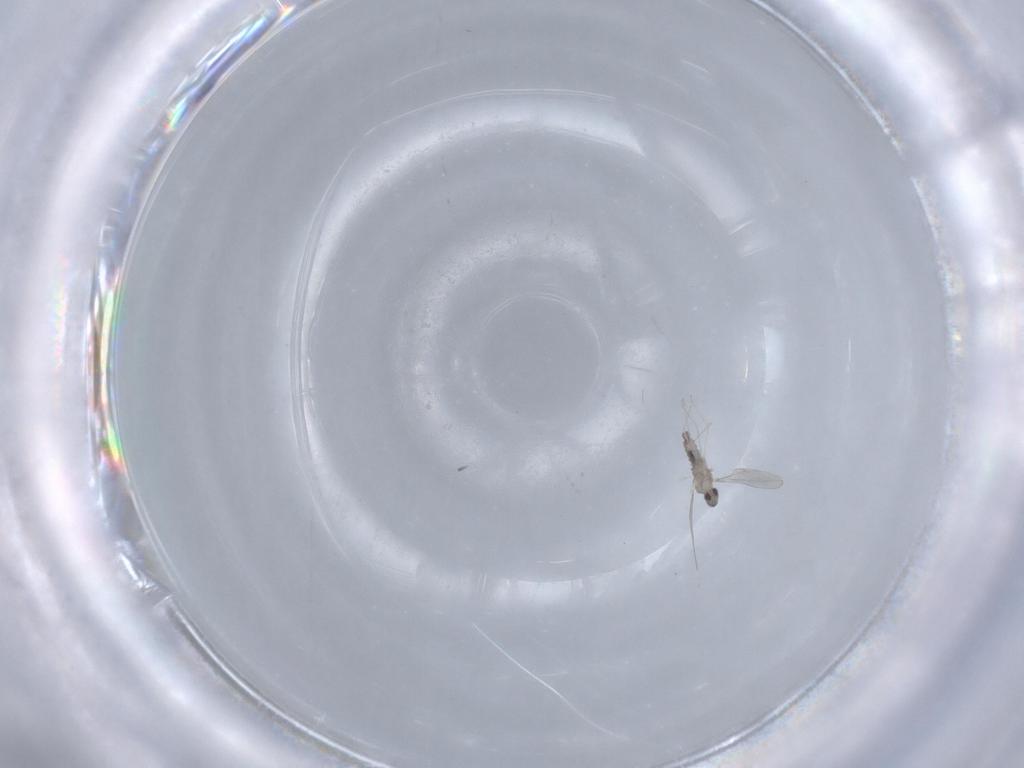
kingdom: Animalia
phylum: Arthropoda
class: Insecta
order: Diptera
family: Cecidomyiidae
